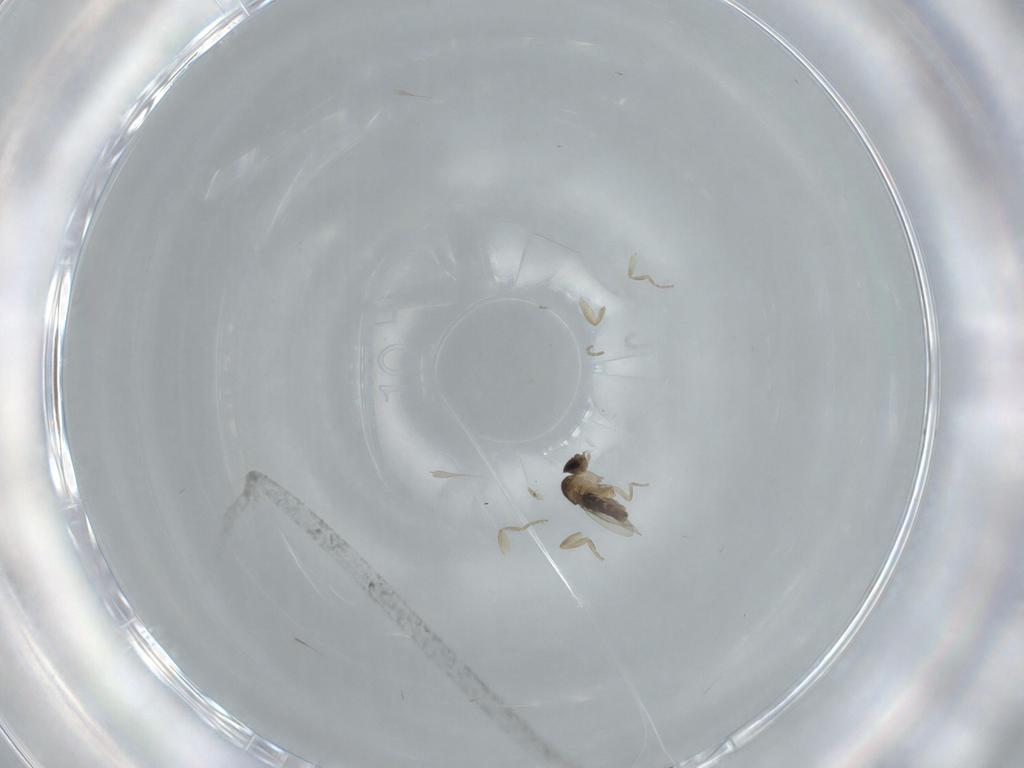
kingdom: Animalia
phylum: Arthropoda
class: Insecta
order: Diptera
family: Phoridae
